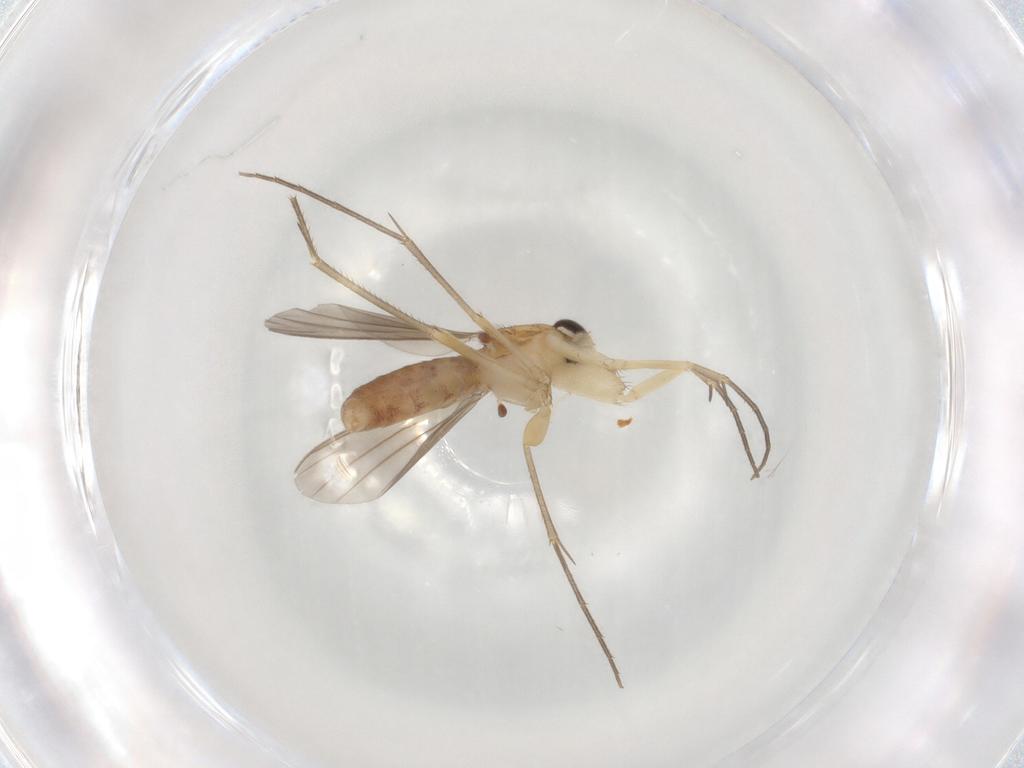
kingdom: Animalia
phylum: Arthropoda
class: Insecta
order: Diptera
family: Mycetophilidae
